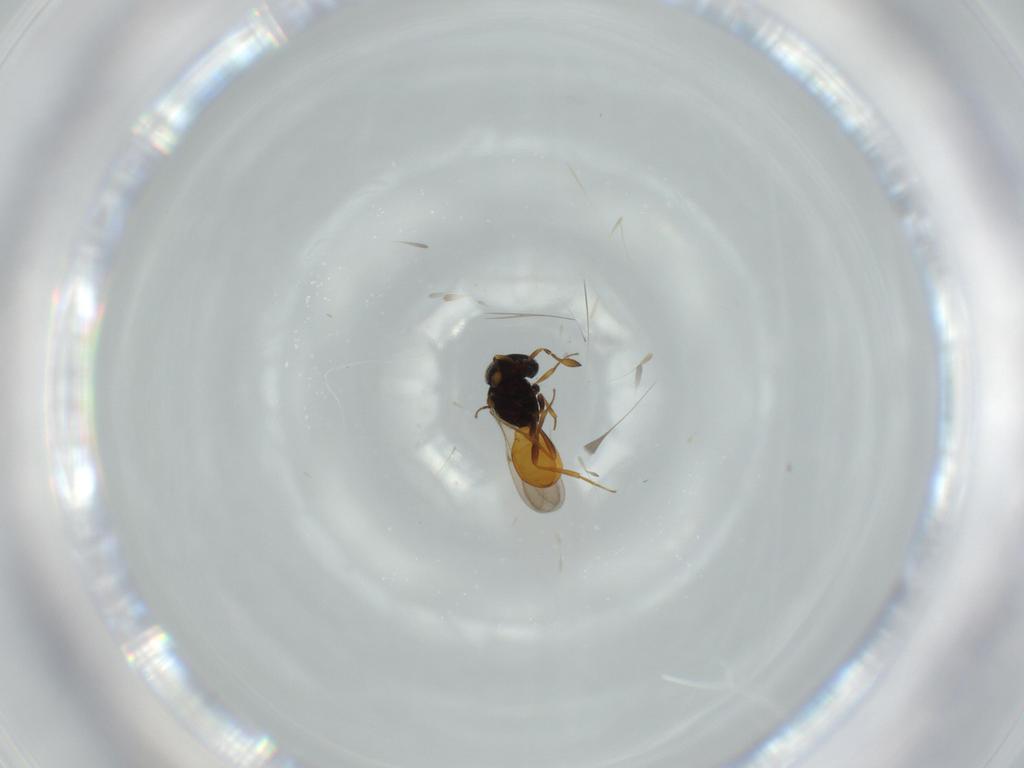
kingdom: Animalia
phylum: Arthropoda
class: Insecta
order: Hymenoptera
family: Scelionidae
